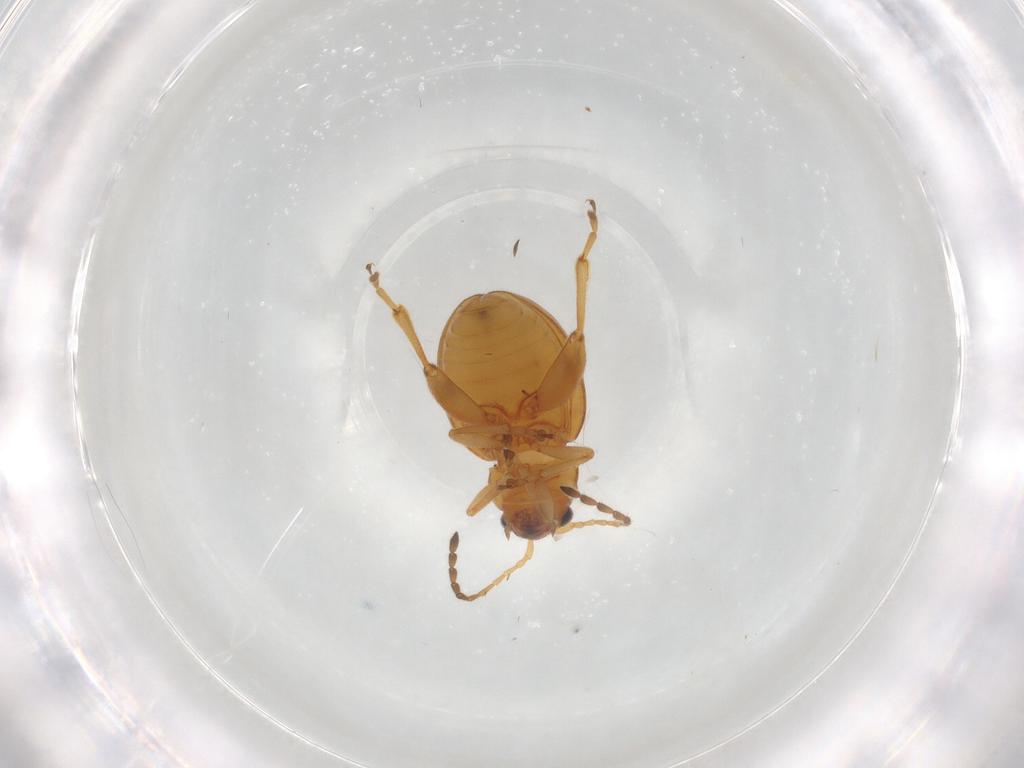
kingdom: Animalia
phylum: Arthropoda
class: Insecta
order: Coleoptera
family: Chrysomelidae
